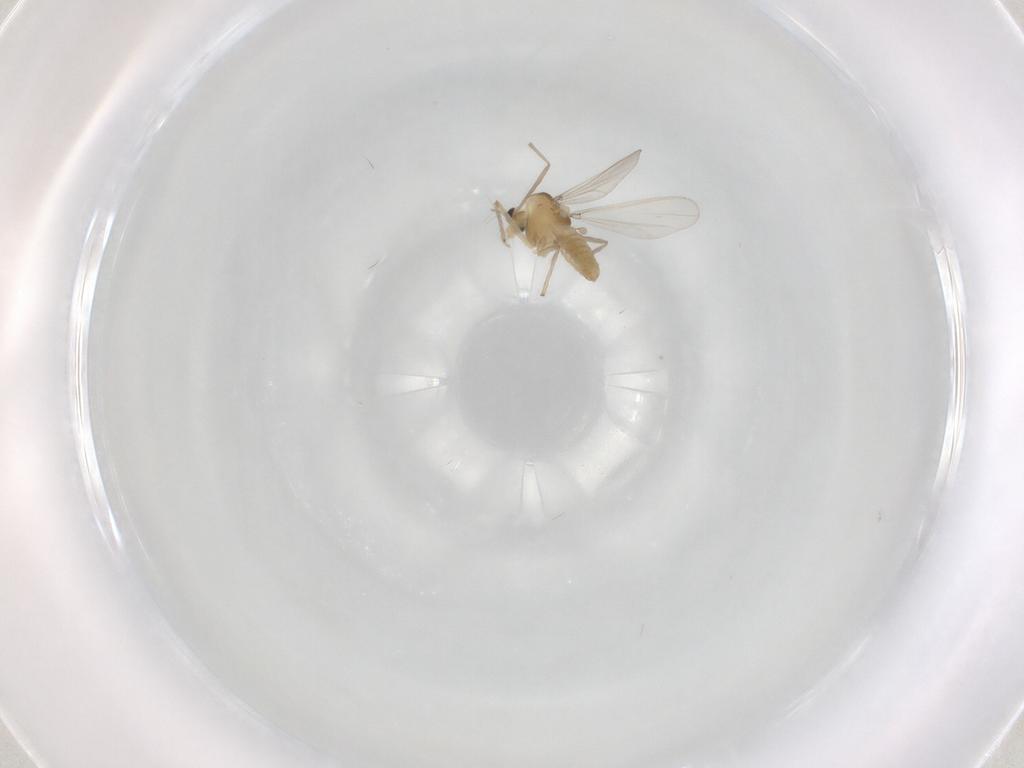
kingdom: Animalia
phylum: Arthropoda
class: Insecta
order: Diptera
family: Chironomidae
